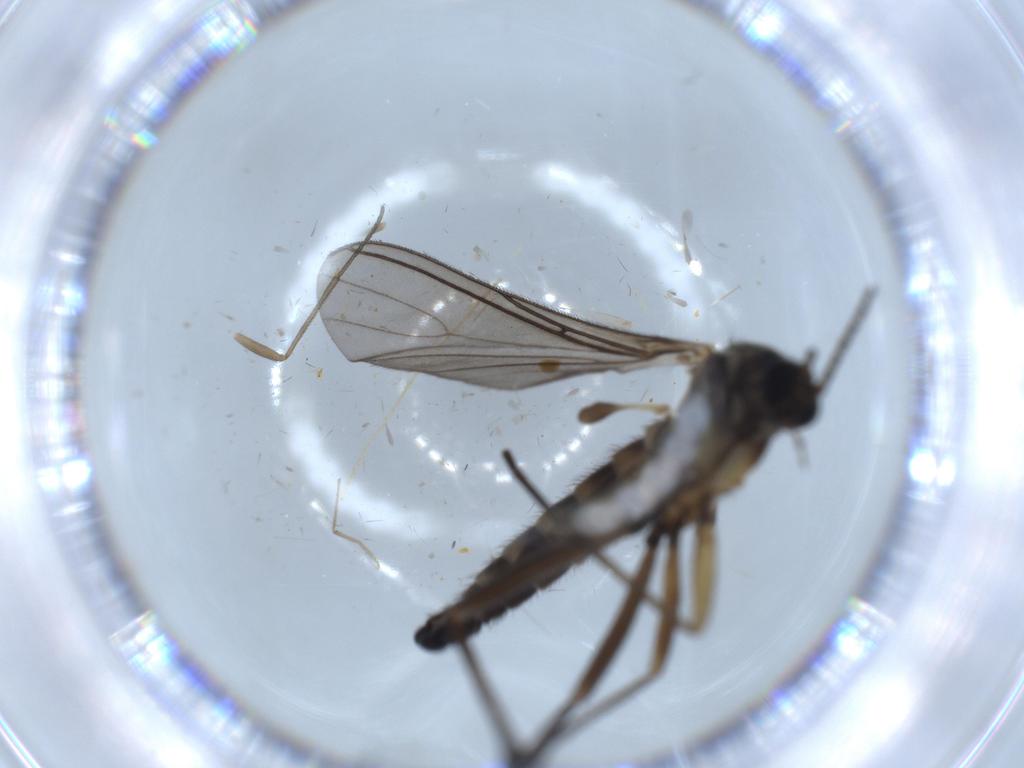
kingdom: Animalia
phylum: Arthropoda
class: Insecta
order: Diptera
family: Sciaridae
